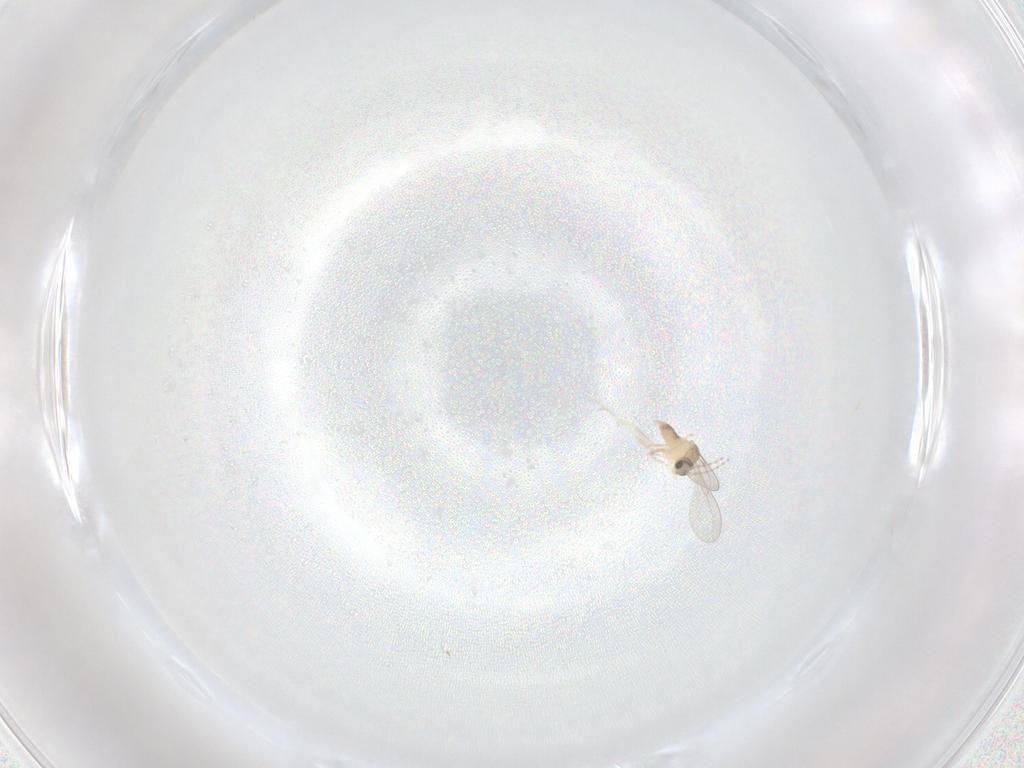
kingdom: Animalia
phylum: Arthropoda
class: Insecta
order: Diptera
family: Cecidomyiidae
